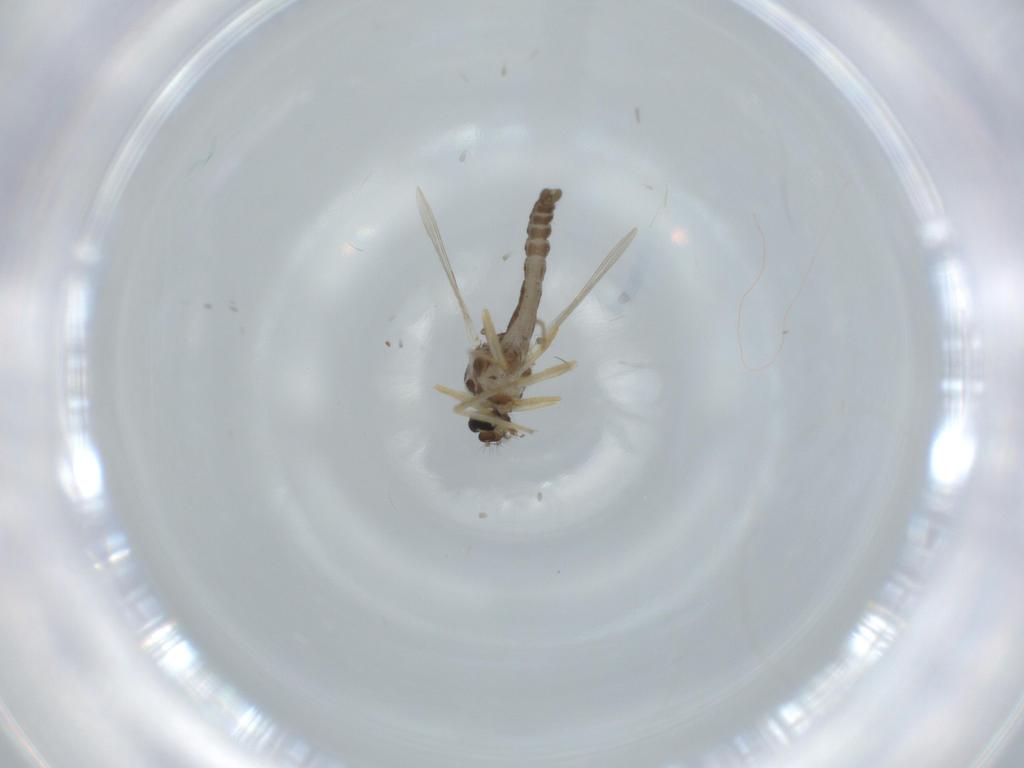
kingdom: Animalia
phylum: Arthropoda
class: Insecta
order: Diptera
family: Ceratopogonidae
